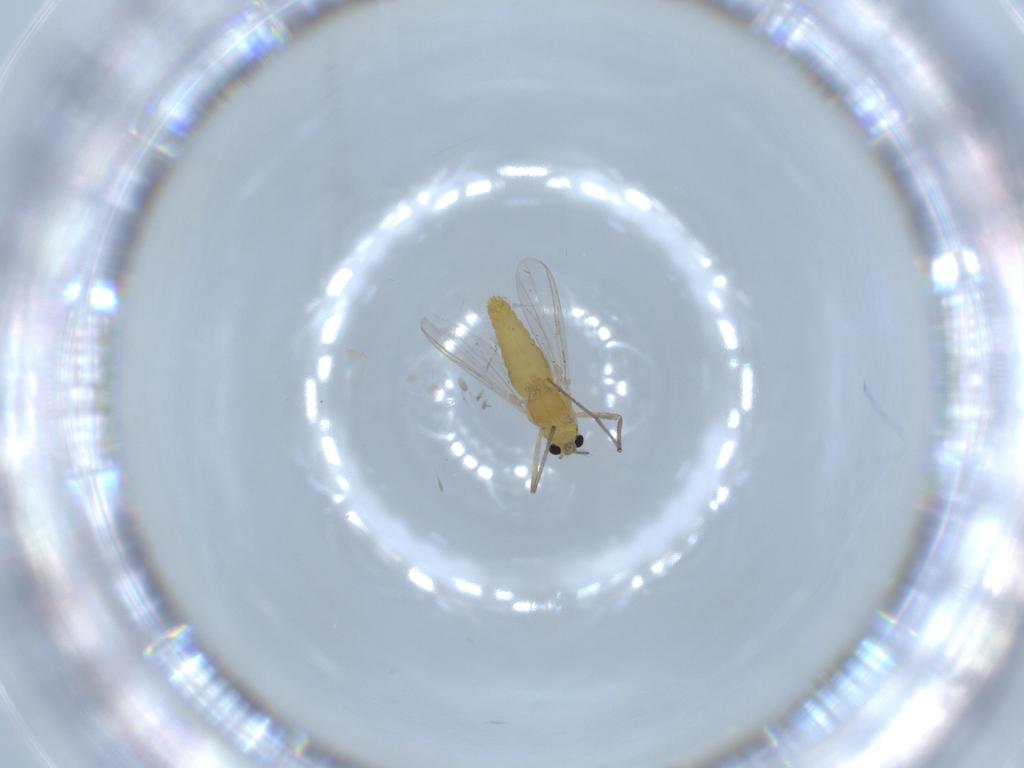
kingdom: Animalia
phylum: Arthropoda
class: Insecta
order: Diptera
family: Chironomidae
